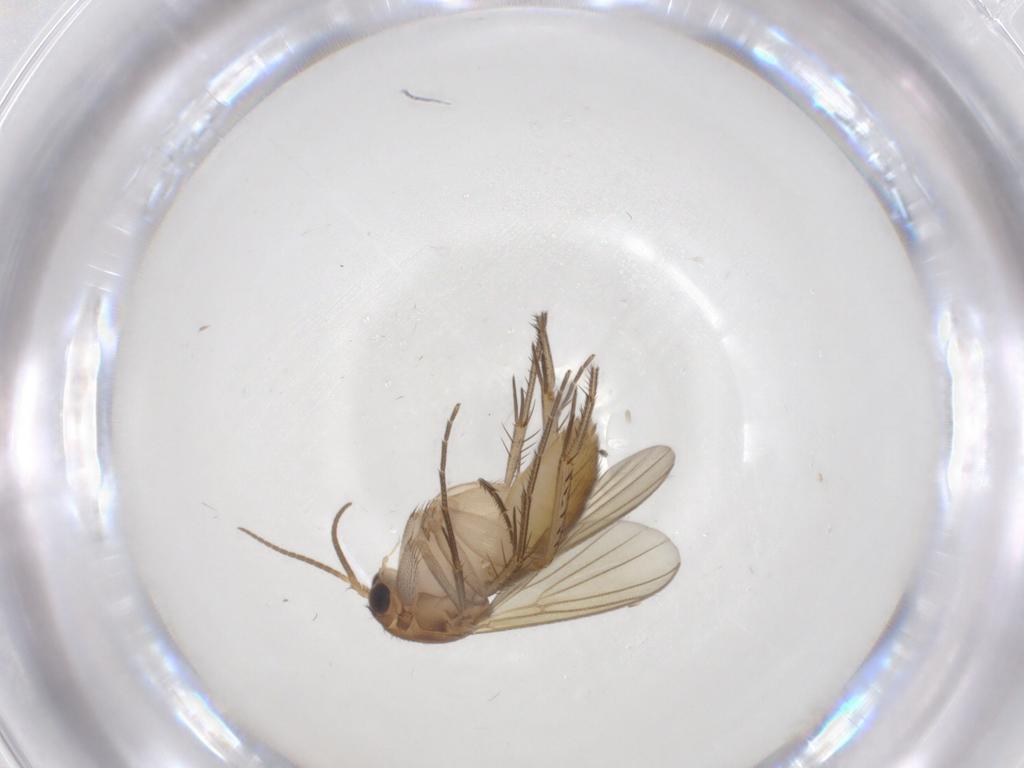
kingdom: Animalia
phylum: Arthropoda
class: Insecta
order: Diptera
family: Mycetophilidae
